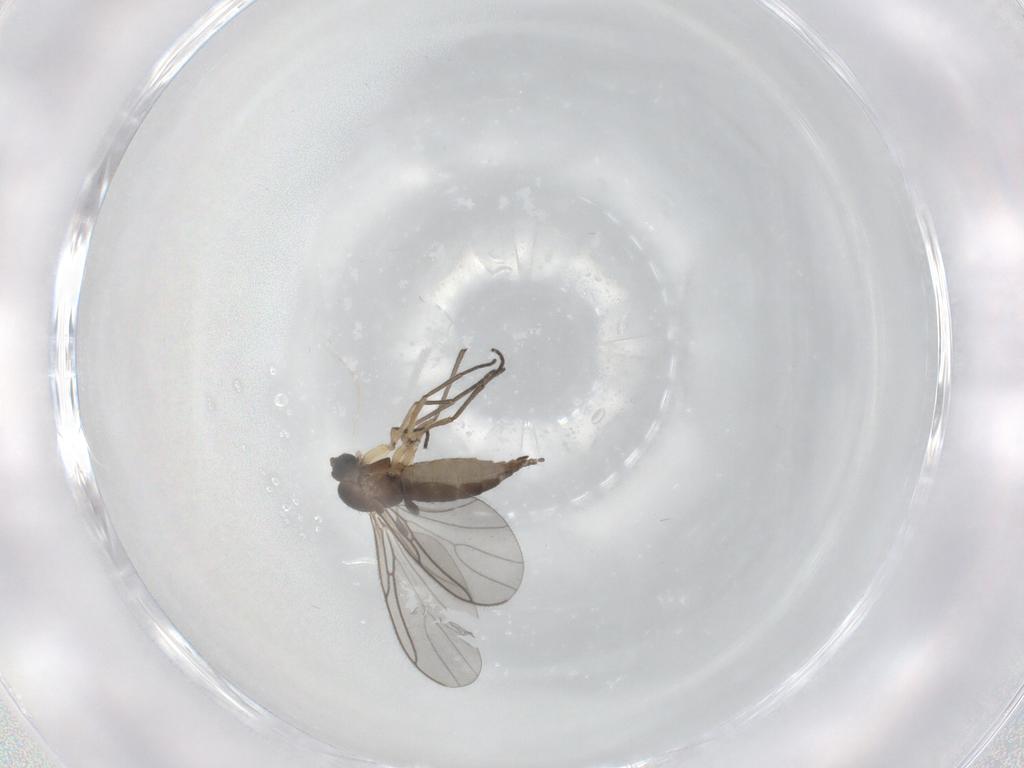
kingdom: Animalia
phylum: Arthropoda
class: Insecta
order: Diptera
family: Sciaridae
